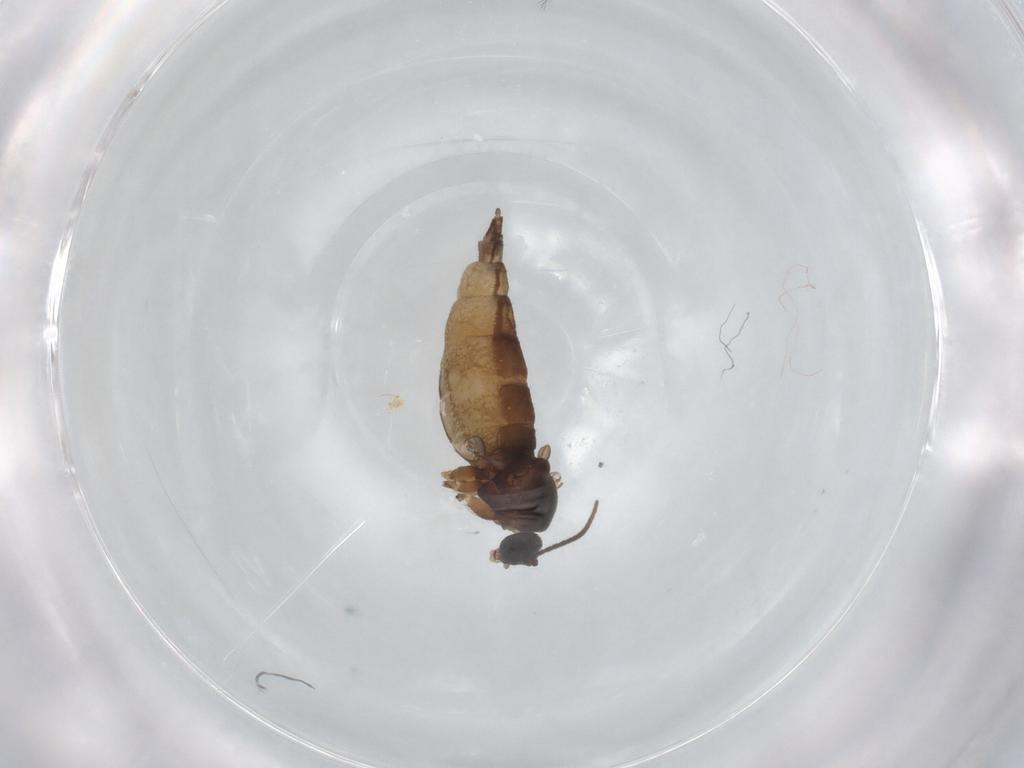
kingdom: Animalia
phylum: Arthropoda
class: Insecta
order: Diptera
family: Sciaridae
